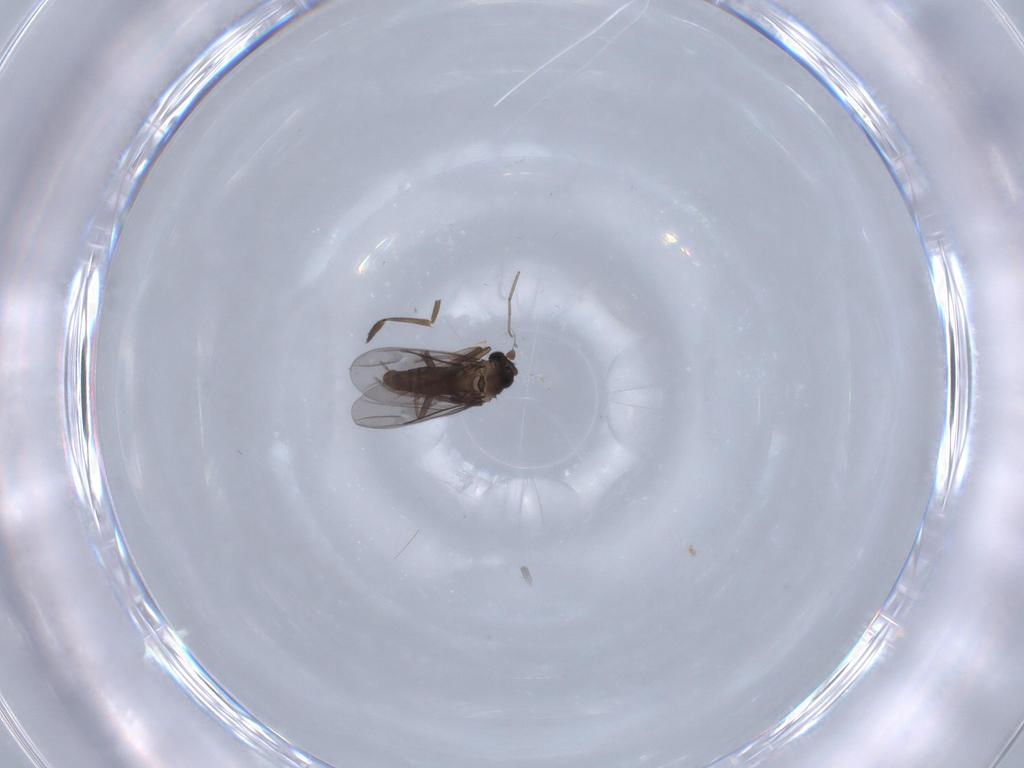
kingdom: Animalia
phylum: Arthropoda
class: Insecta
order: Diptera
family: Phoridae
